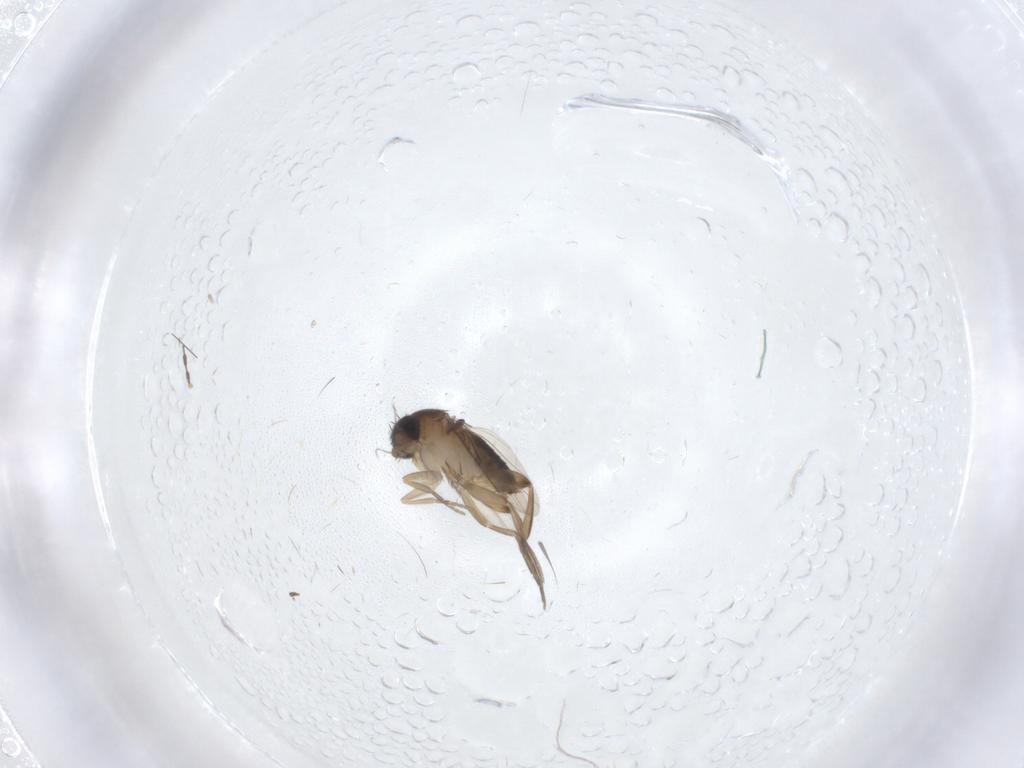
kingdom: Animalia
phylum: Arthropoda
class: Insecta
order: Diptera
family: Phoridae
